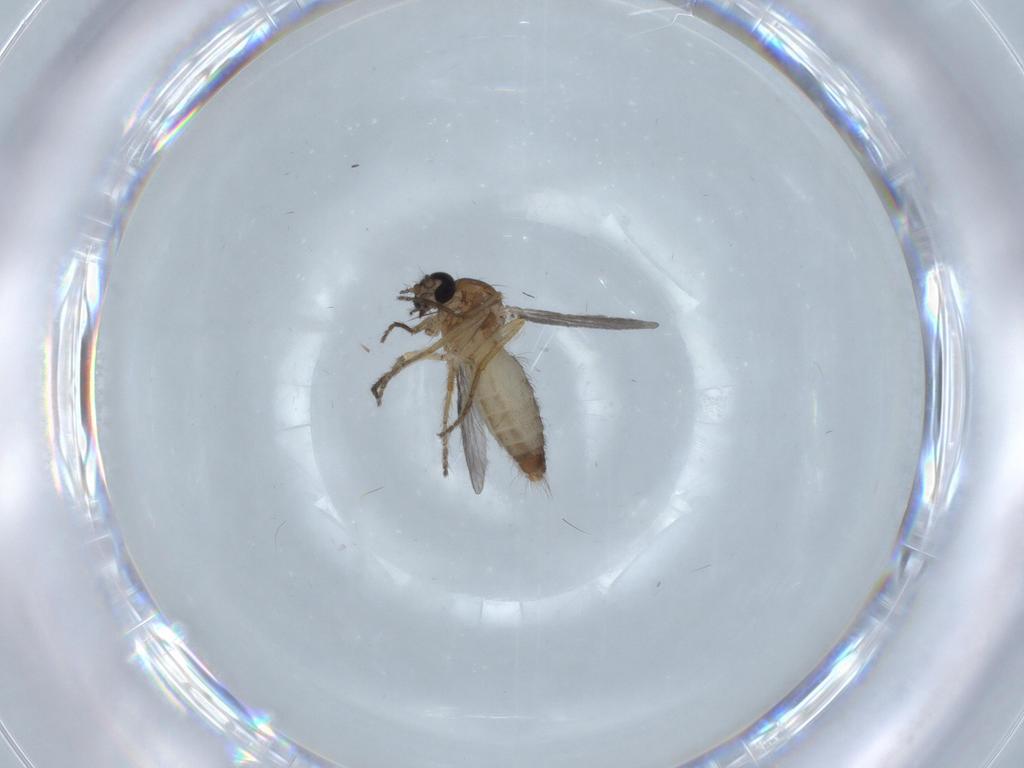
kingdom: Animalia
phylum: Arthropoda
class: Insecta
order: Diptera
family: Ceratopogonidae
